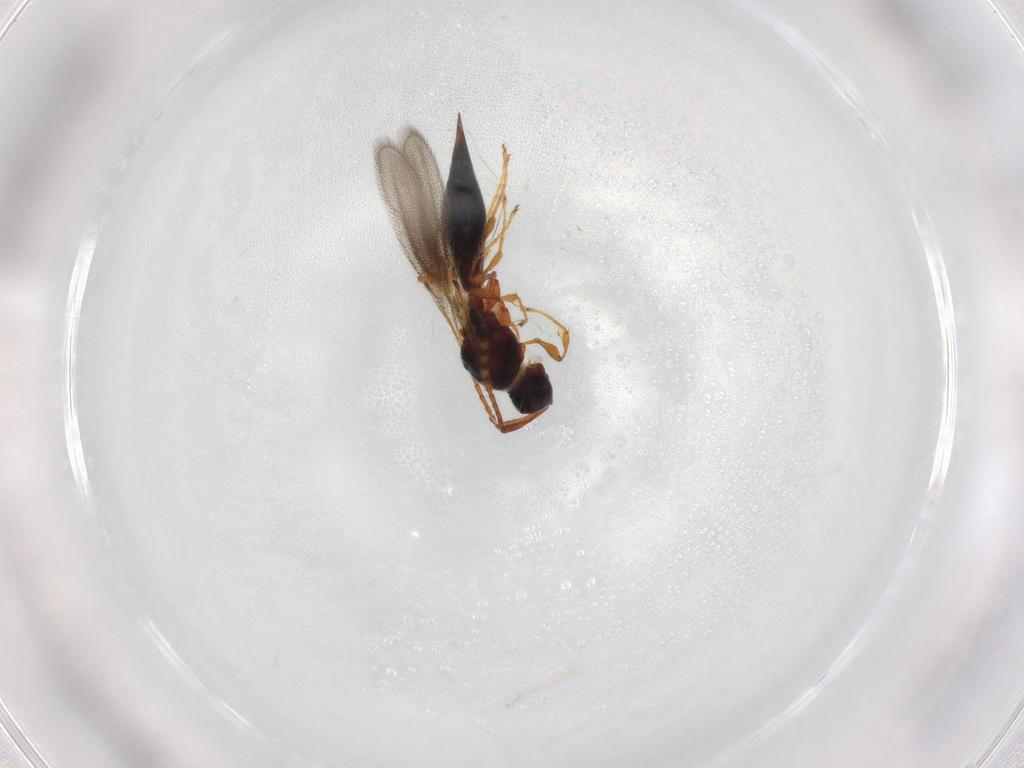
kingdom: Animalia
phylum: Arthropoda
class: Insecta
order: Hymenoptera
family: Diapriidae
